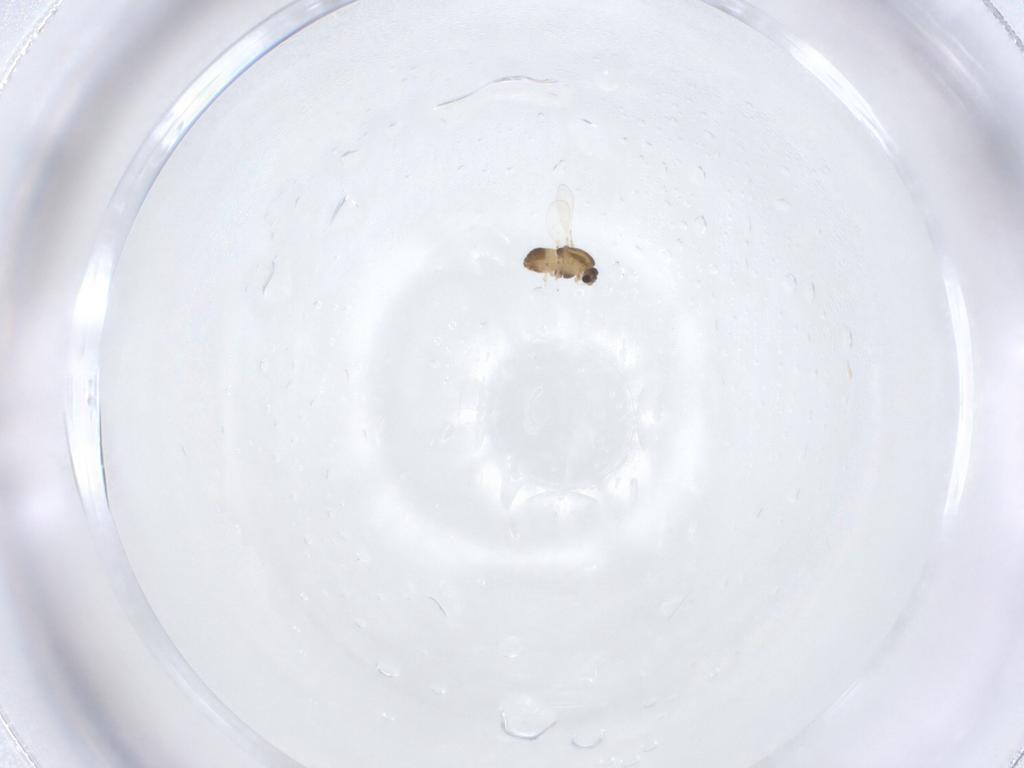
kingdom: Animalia
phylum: Arthropoda
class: Insecta
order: Diptera
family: Chironomidae
